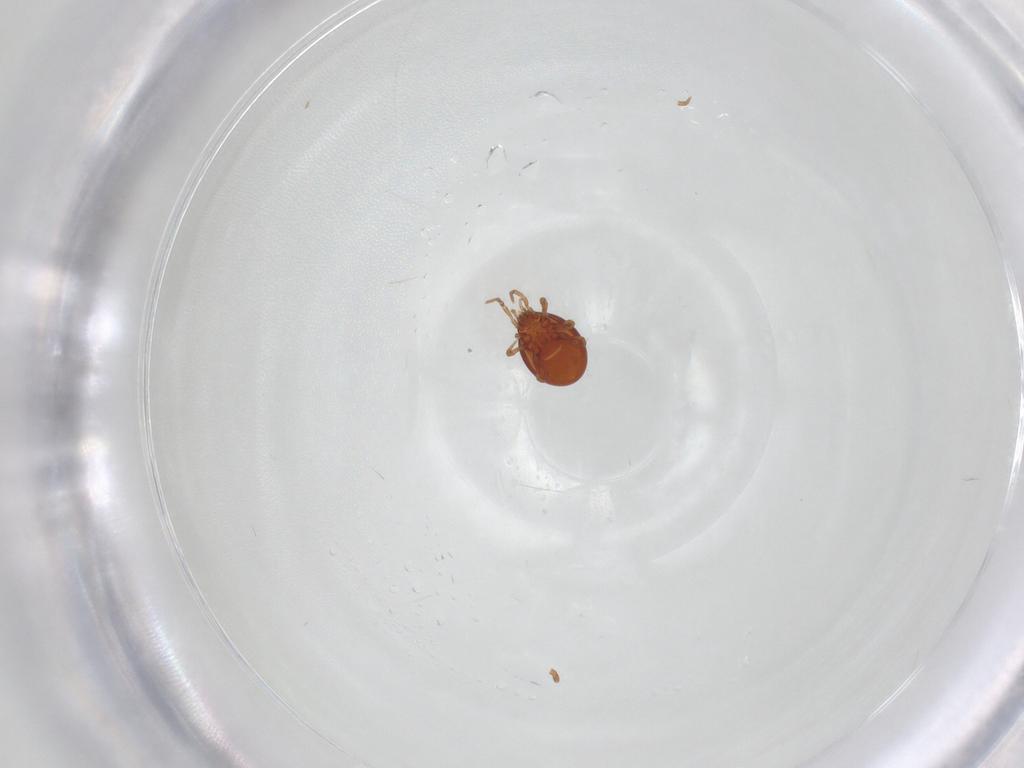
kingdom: Animalia
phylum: Arthropoda
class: Arachnida
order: Mesostigmata
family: Parasitidae
